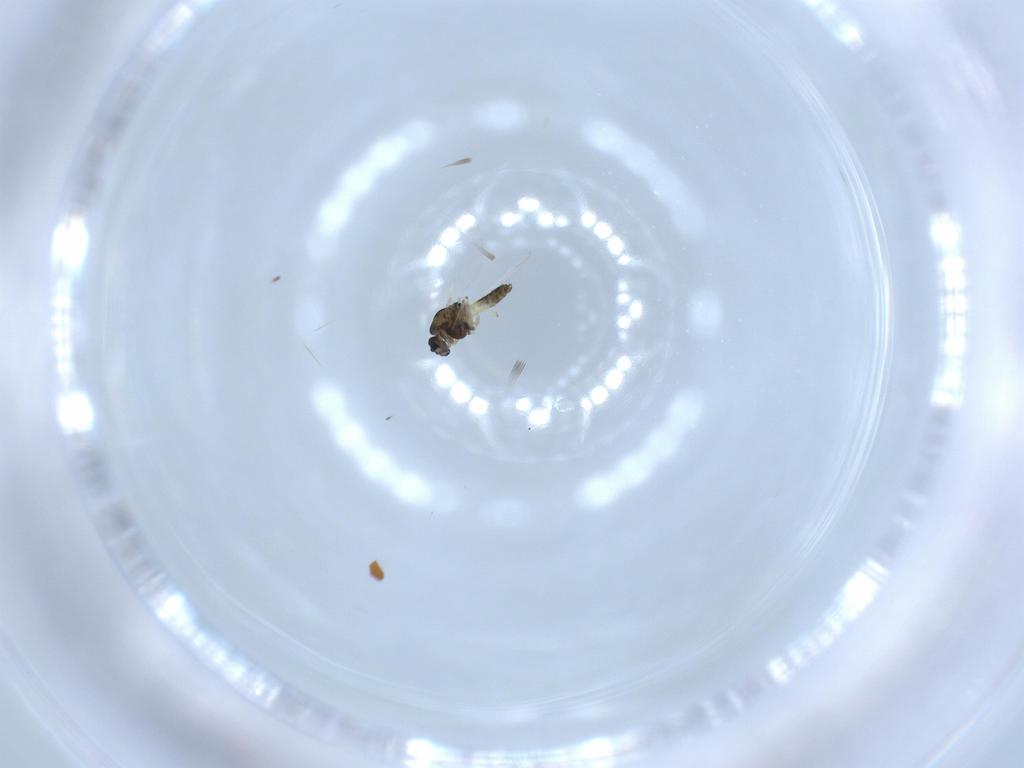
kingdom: Animalia
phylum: Arthropoda
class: Insecta
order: Diptera
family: Chironomidae
